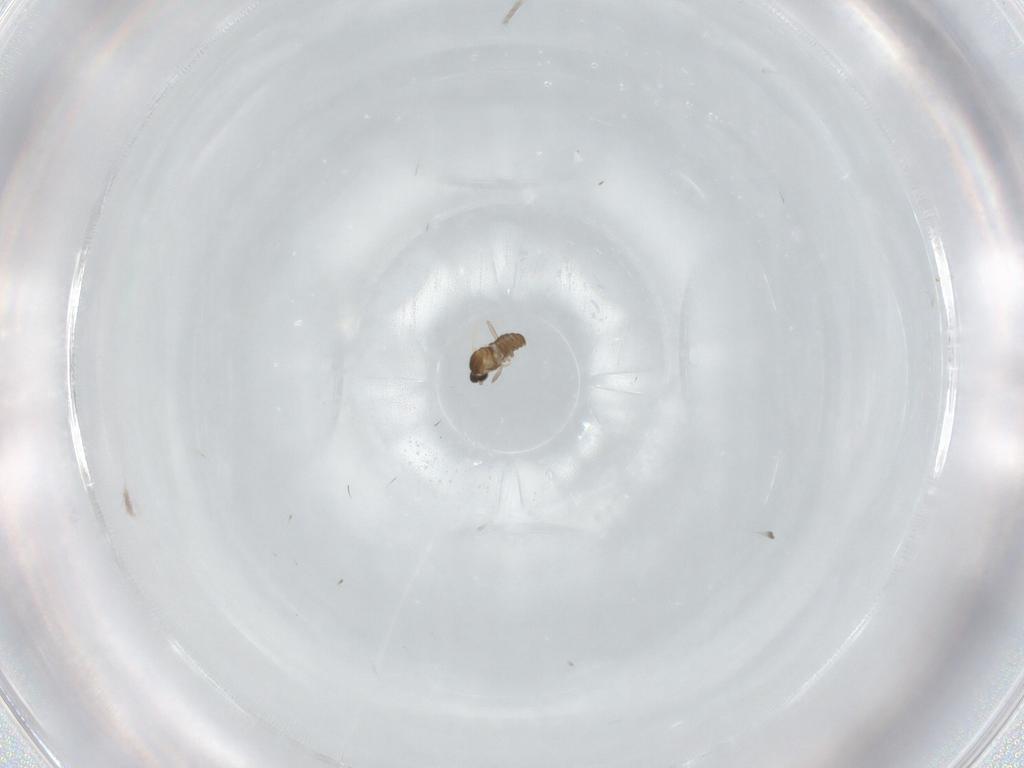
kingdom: Animalia
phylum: Arthropoda
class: Insecta
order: Diptera
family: Cecidomyiidae
